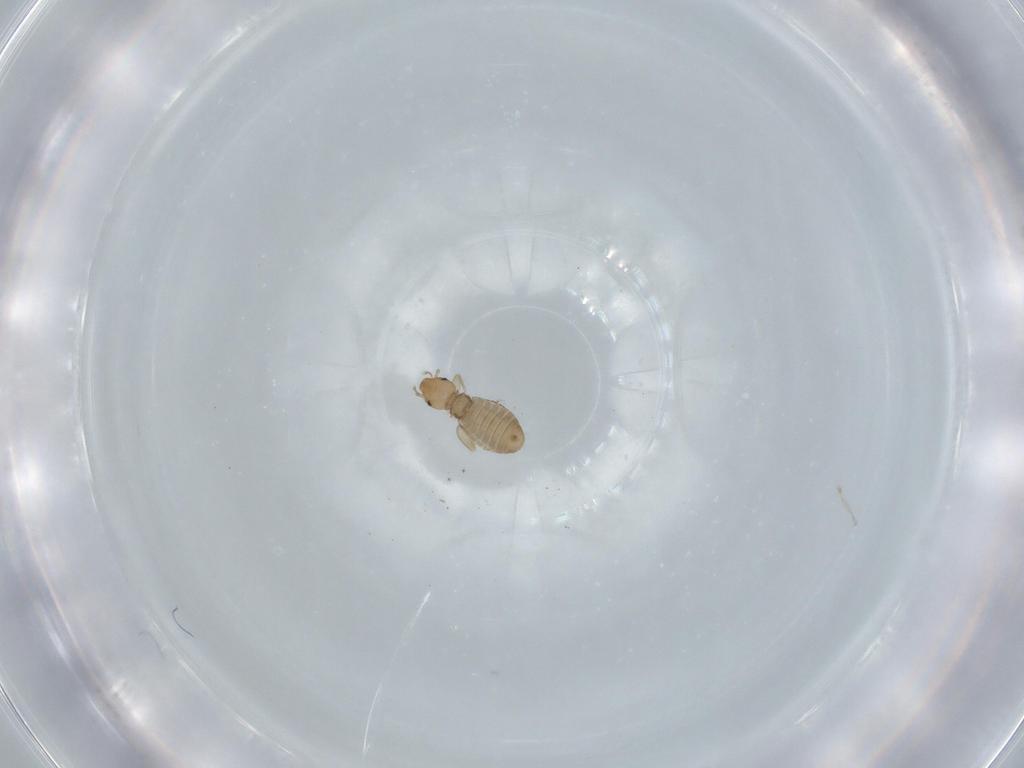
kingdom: Animalia
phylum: Arthropoda
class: Insecta
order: Psocodea
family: Liposcelididae
